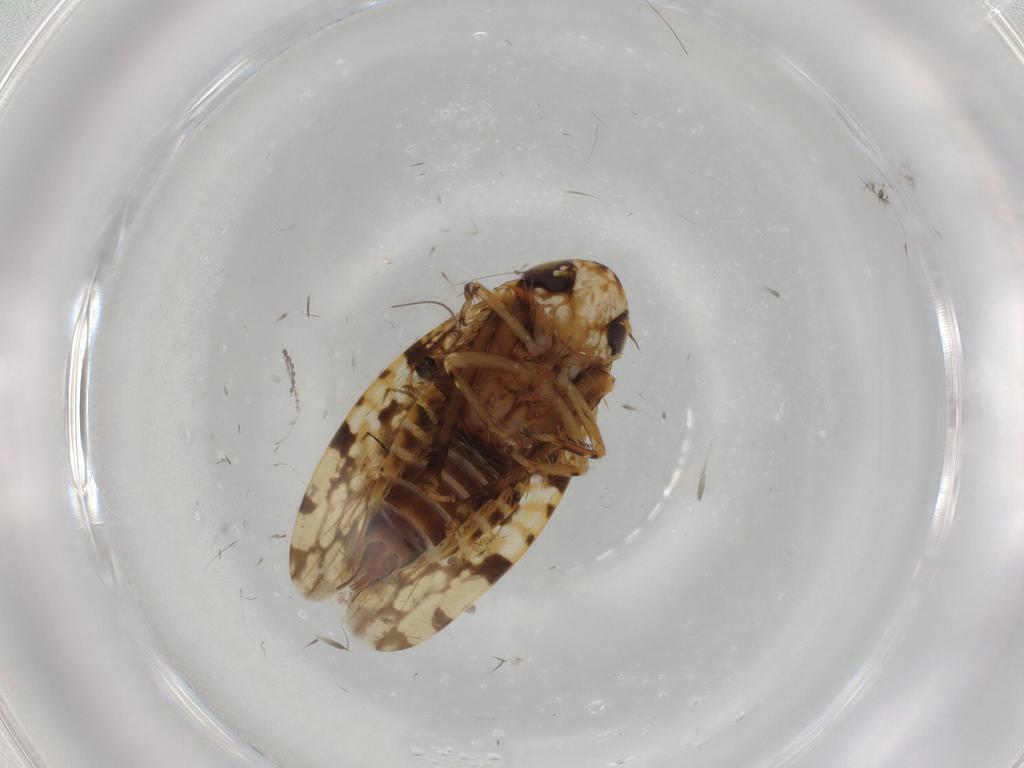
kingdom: Animalia
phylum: Arthropoda
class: Insecta
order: Hemiptera
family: Cicadellidae
